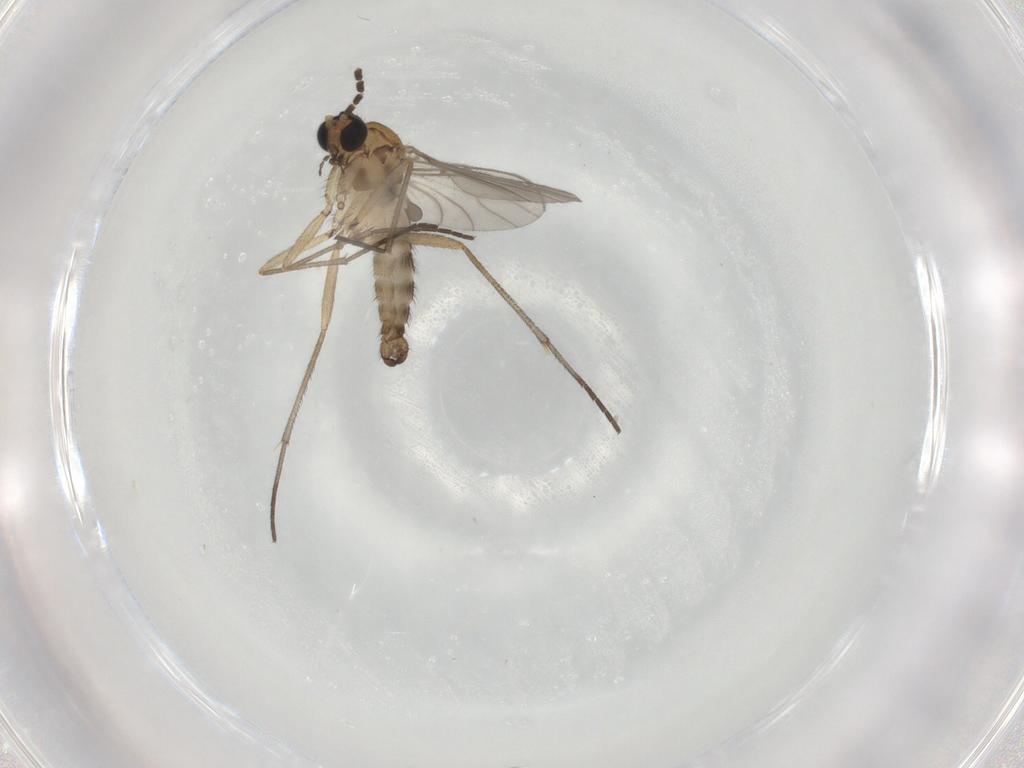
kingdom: Animalia
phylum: Arthropoda
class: Insecta
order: Diptera
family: Sciaridae
